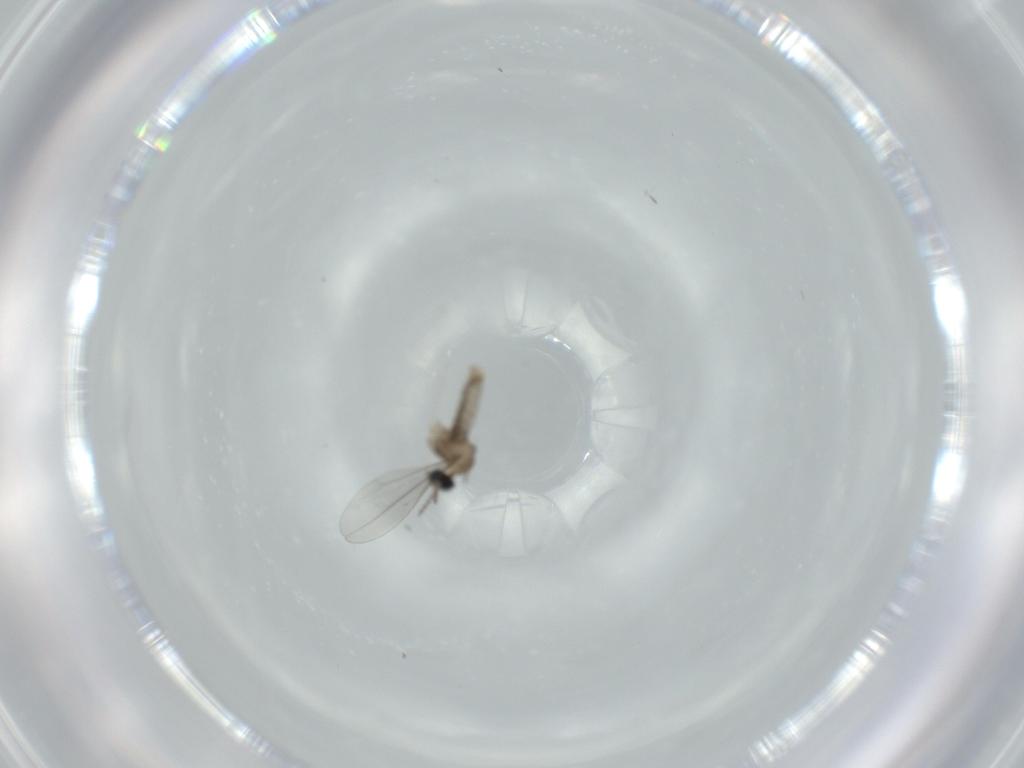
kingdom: Animalia
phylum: Arthropoda
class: Insecta
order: Diptera
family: Cecidomyiidae
